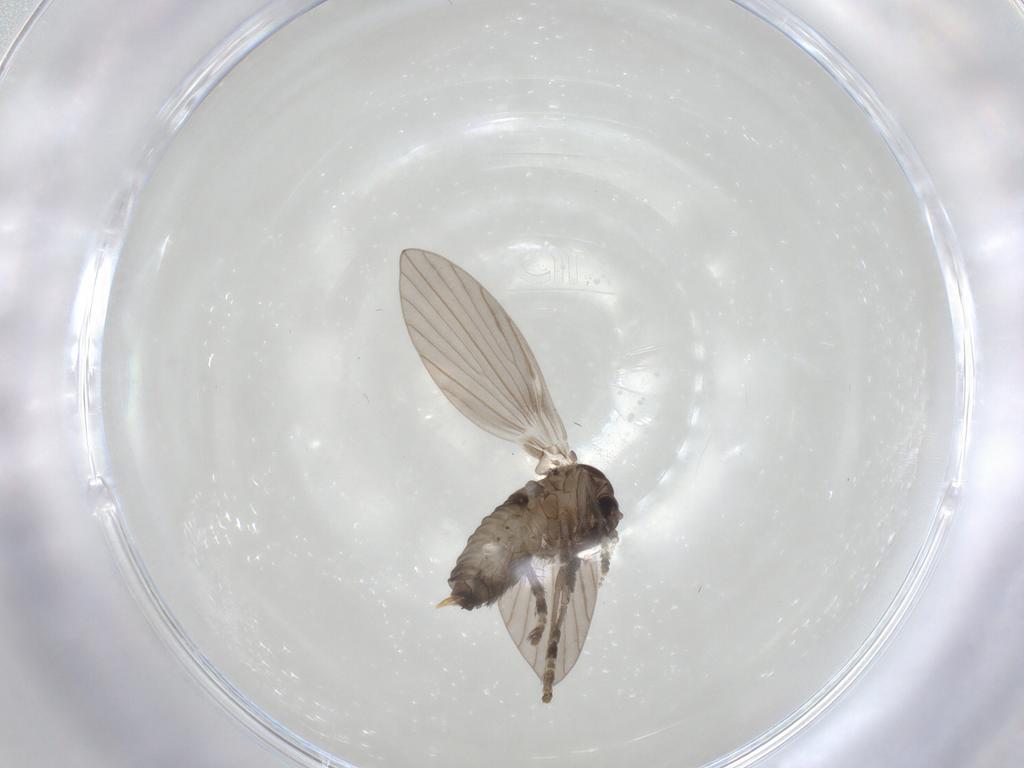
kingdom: Animalia
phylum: Arthropoda
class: Insecta
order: Diptera
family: Psychodidae
